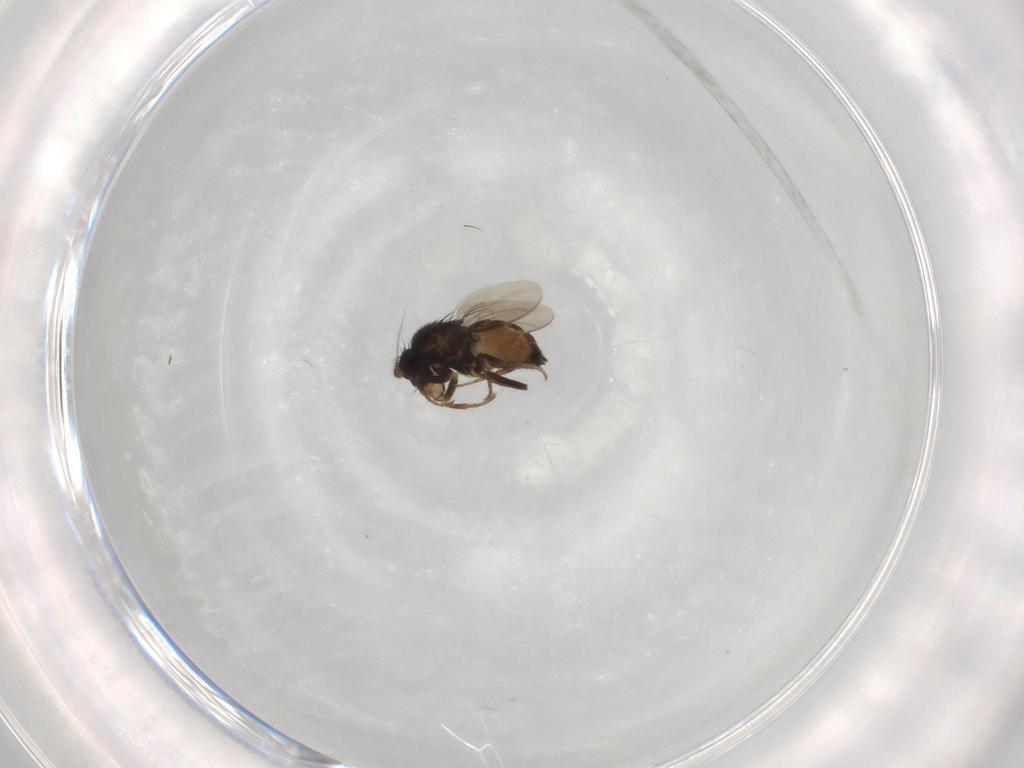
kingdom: Animalia
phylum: Arthropoda
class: Insecta
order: Diptera
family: Sphaeroceridae
